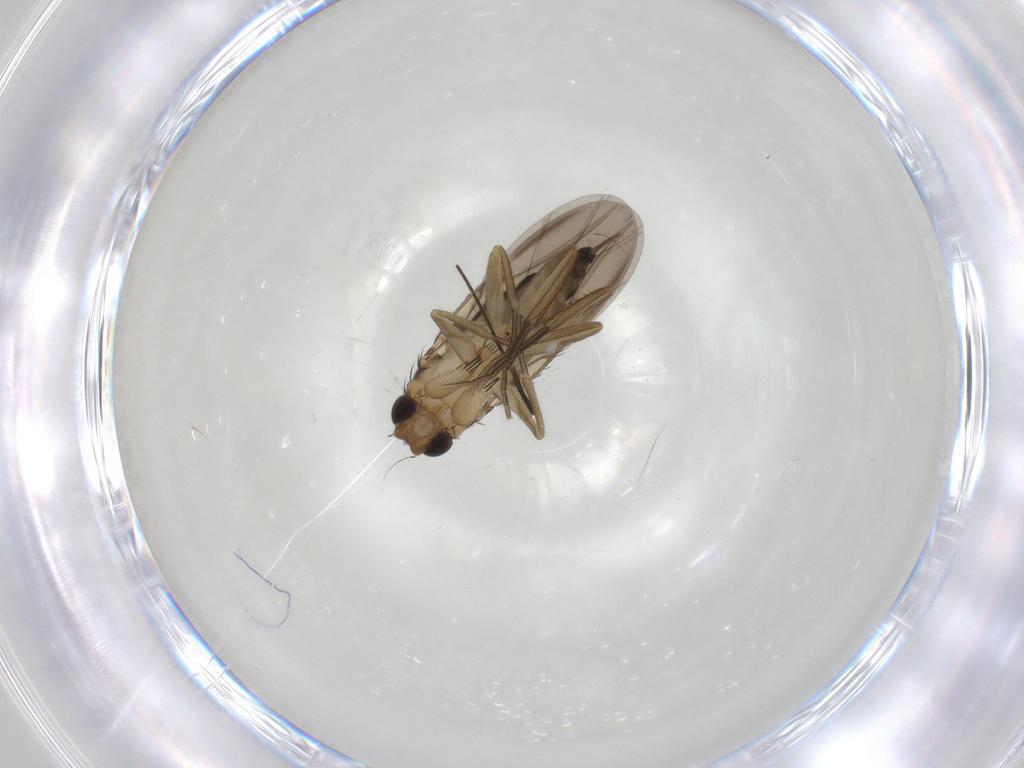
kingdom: Animalia
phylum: Arthropoda
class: Insecta
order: Diptera
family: Chironomidae
